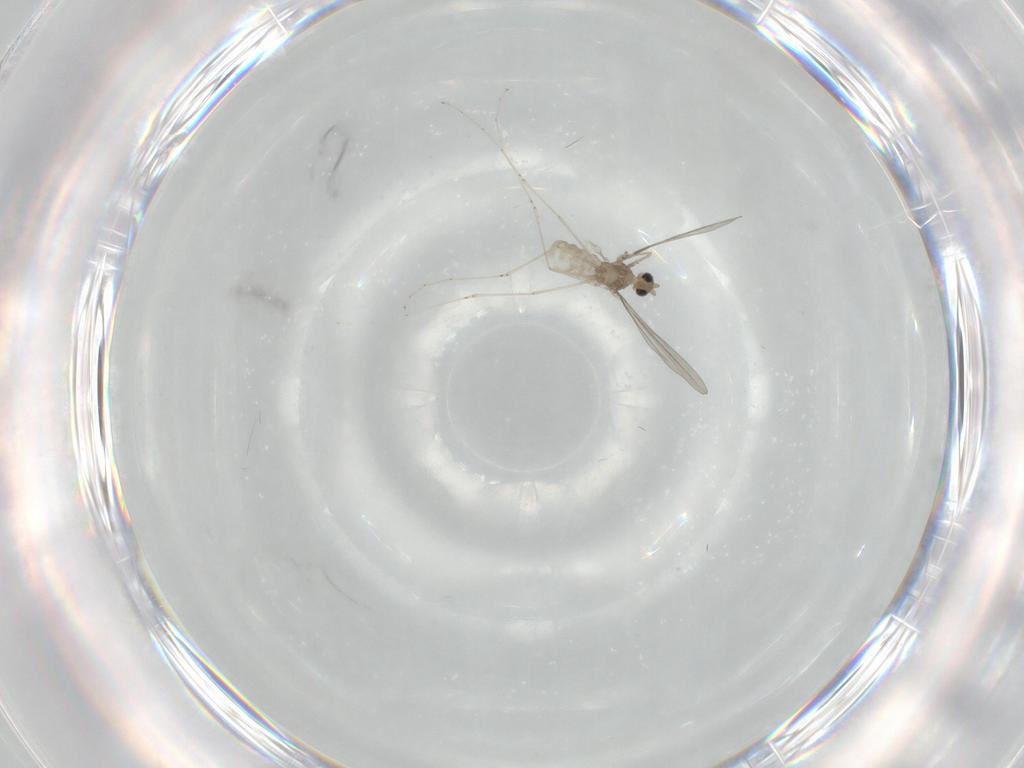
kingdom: Animalia
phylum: Arthropoda
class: Insecta
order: Diptera
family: Cecidomyiidae
